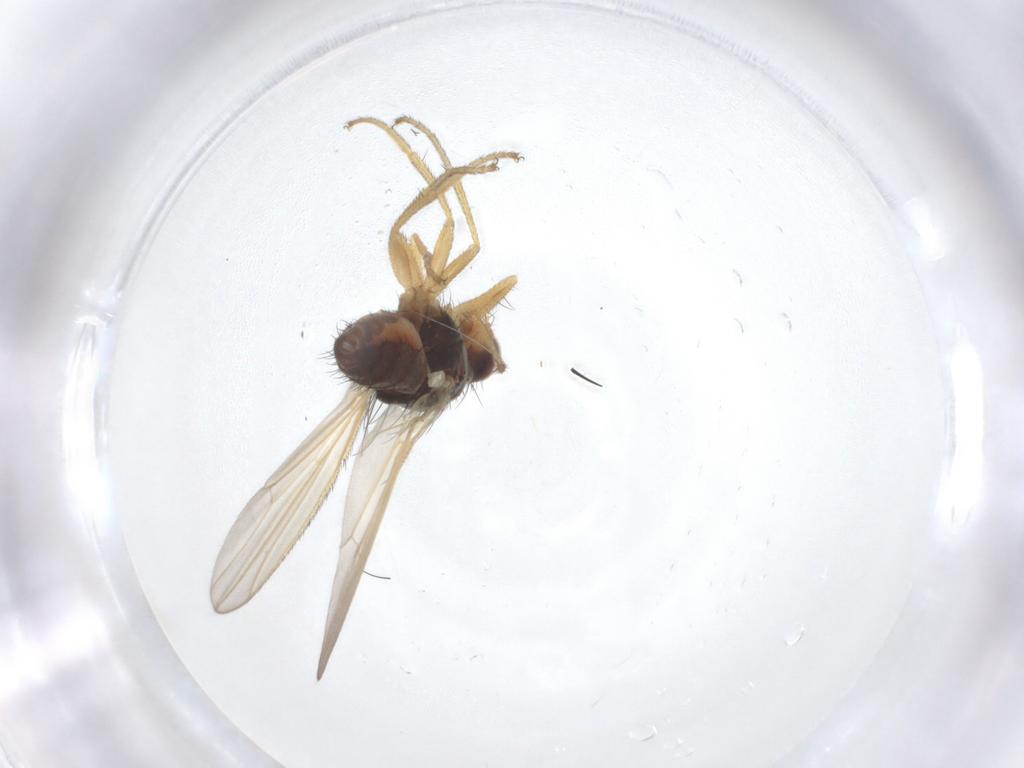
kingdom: Animalia
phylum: Arthropoda
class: Insecta
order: Diptera
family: Heleomyzidae
